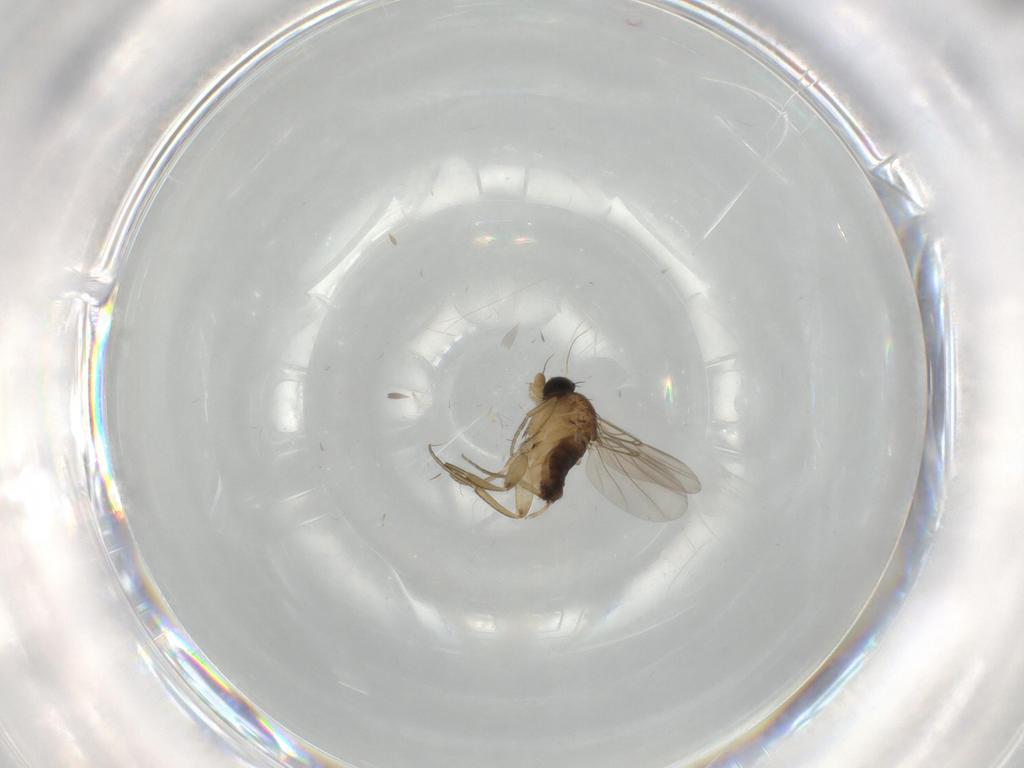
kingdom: Animalia
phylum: Arthropoda
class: Insecta
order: Diptera
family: Phoridae
